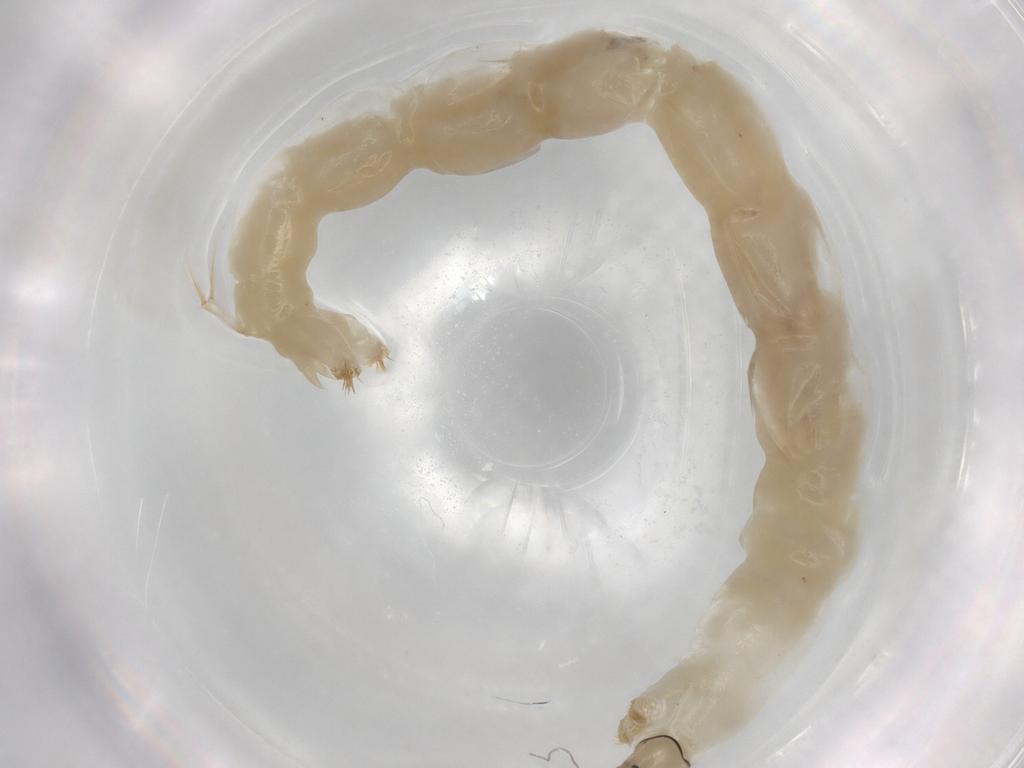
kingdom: Animalia
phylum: Arthropoda
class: Insecta
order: Diptera
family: Chironomidae
